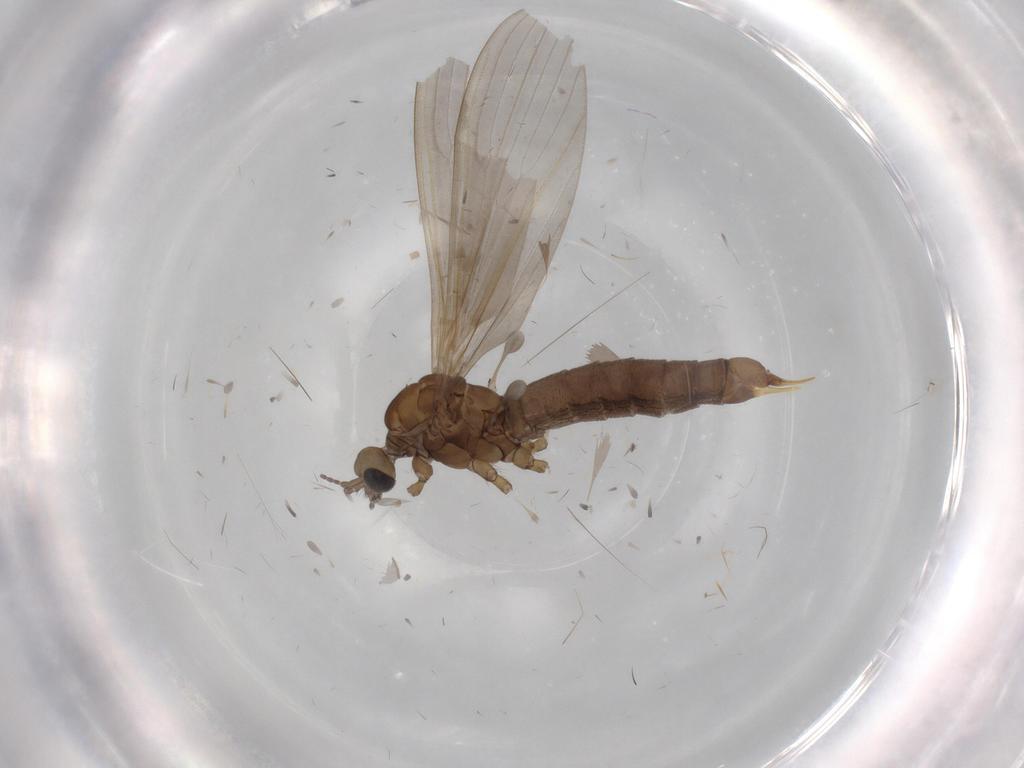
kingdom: Animalia
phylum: Arthropoda
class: Insecta
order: Diptera
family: Limoniidae
